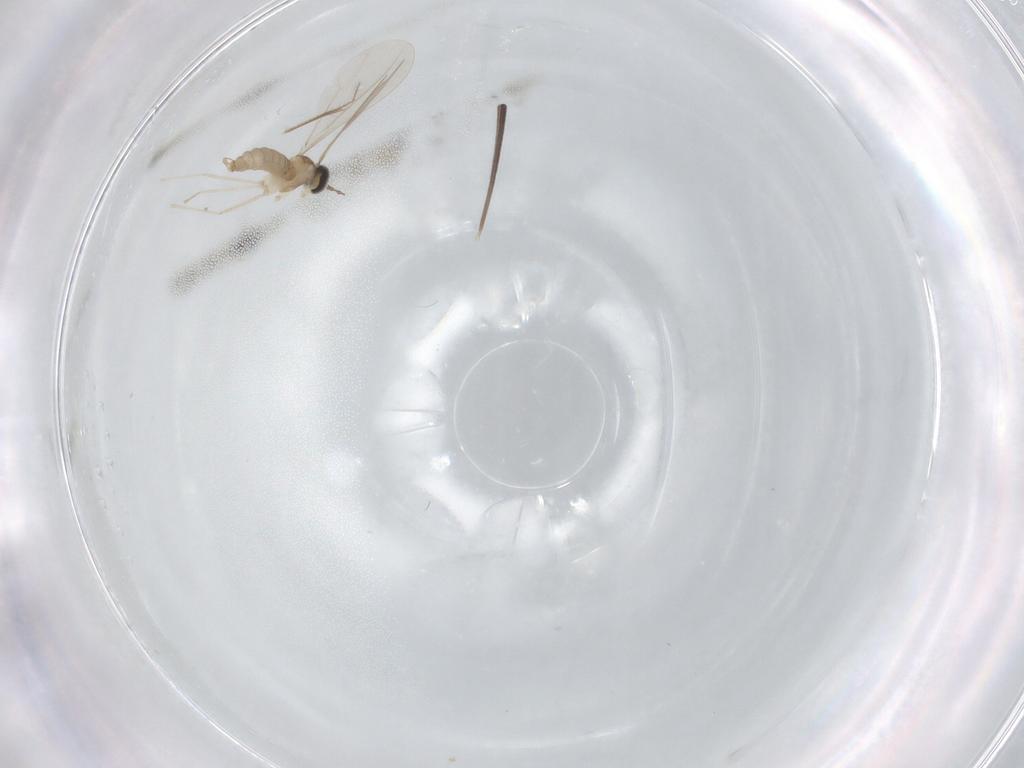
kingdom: Animalia
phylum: Arthropoda
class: Insecta
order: Diptera
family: Cecidomyiidae
